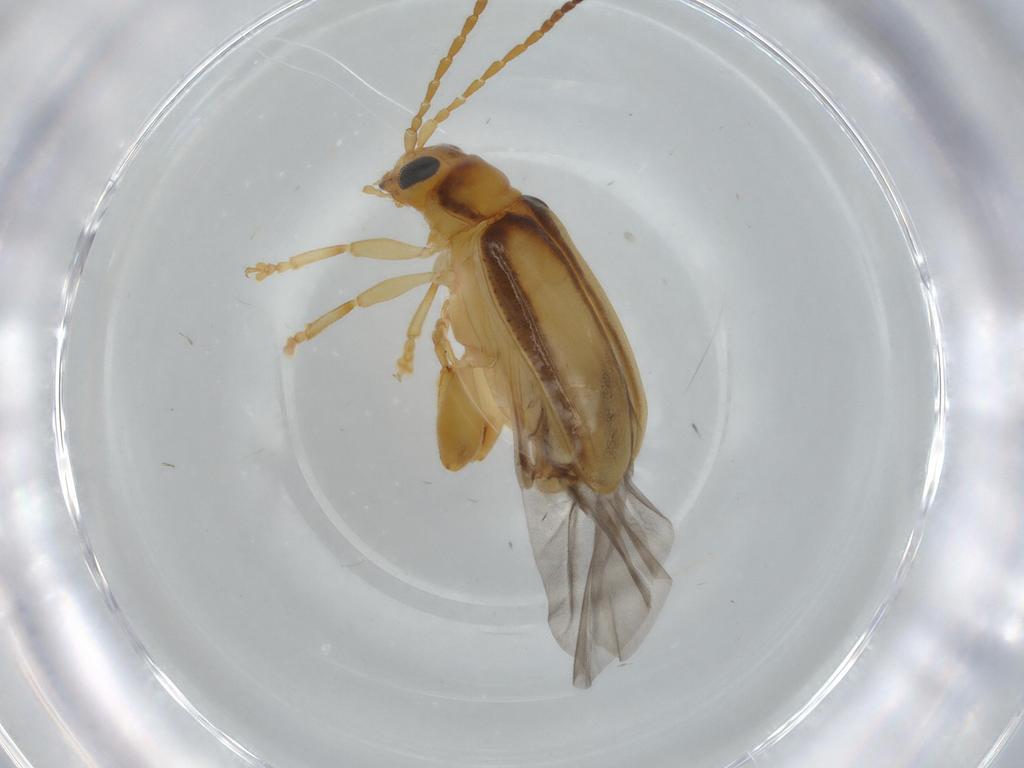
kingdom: Animalia
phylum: Arthropoda
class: Insecta
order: Coleoptera
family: Chrysomelidae
